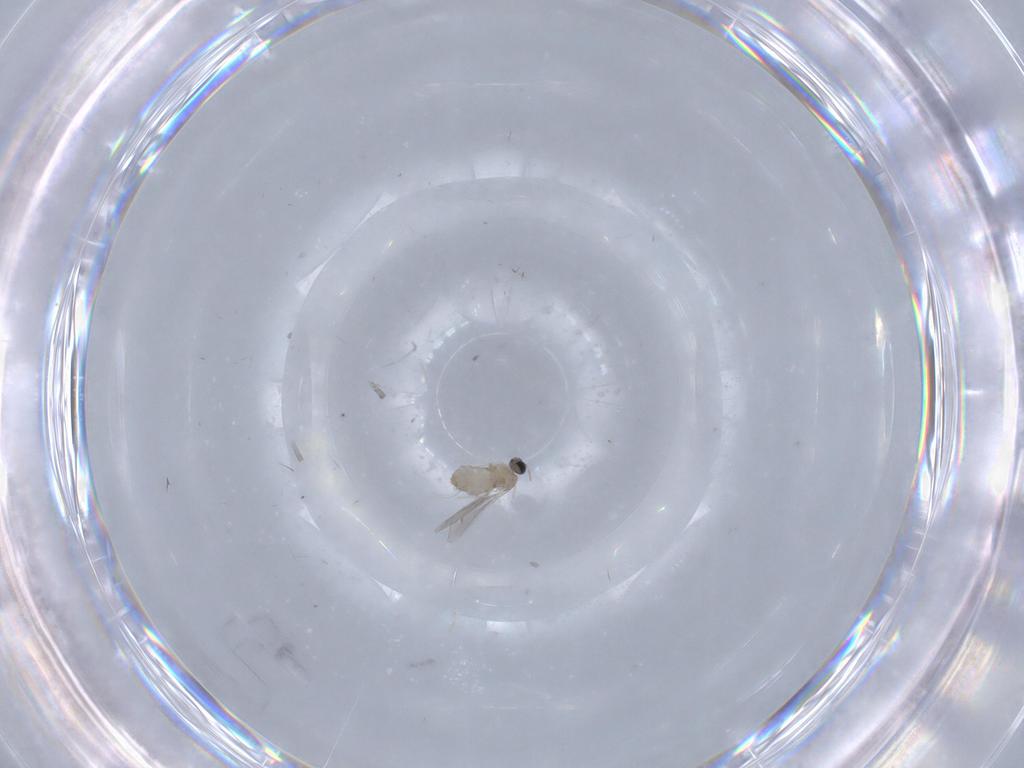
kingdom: Animalia
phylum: Arthropoda
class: Insecta
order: Diptera
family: Cecidomyiidae
